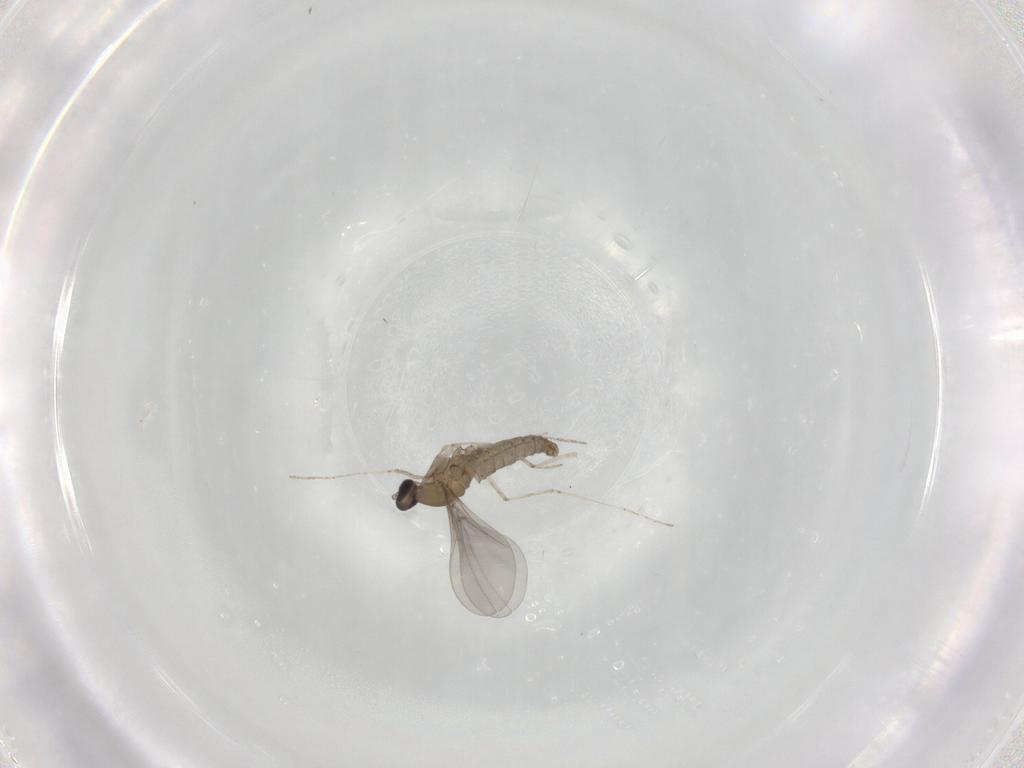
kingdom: Animalia
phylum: Arthropoda
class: Insecta
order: Diptera
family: Cecidomyiidae
